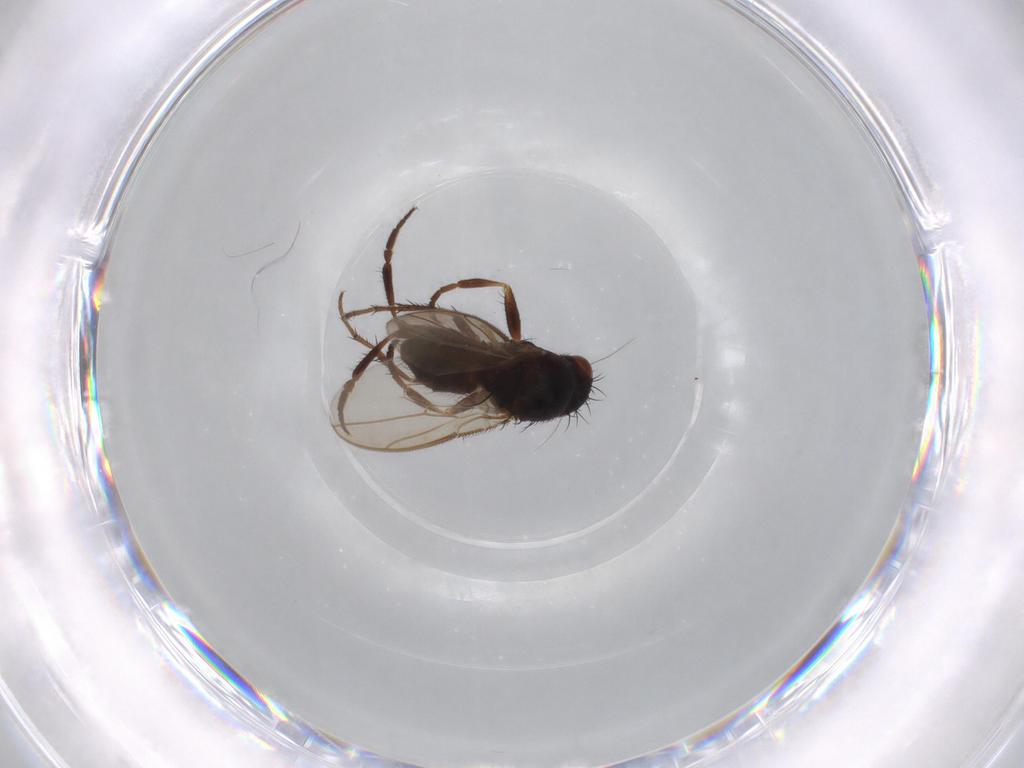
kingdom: Animalia
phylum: Arthropoda
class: Insecta
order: Diptera
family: Sphaeroceridae
